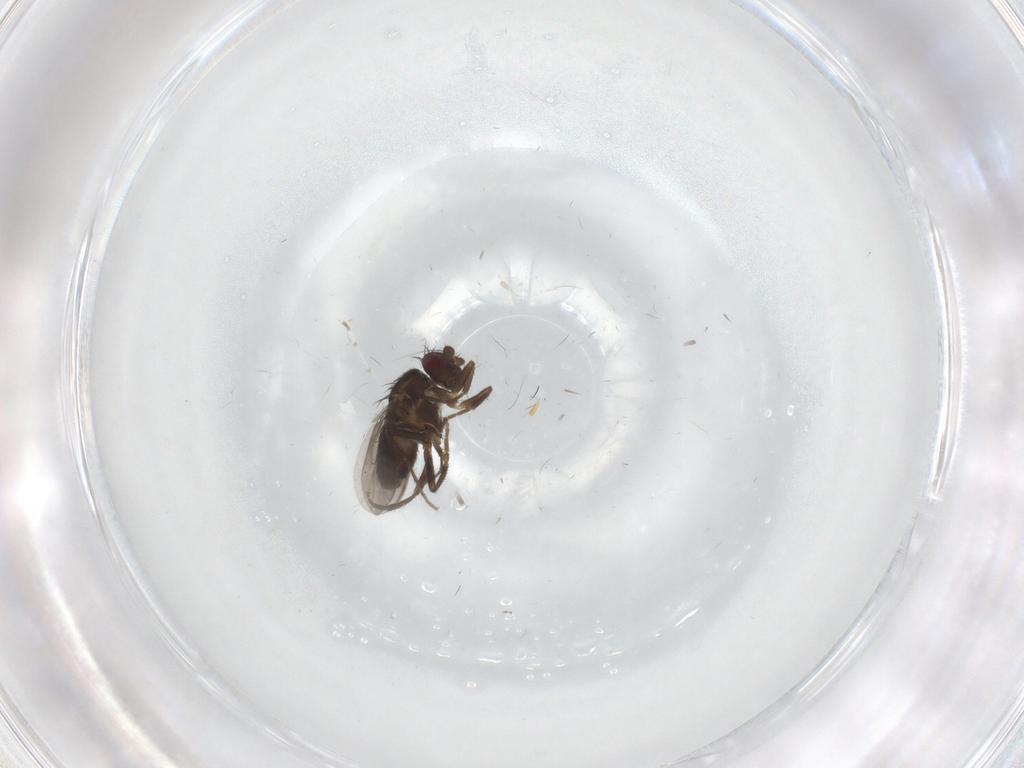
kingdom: Animalia
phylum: Arthropoda
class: Insecta
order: Diptera
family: Sphaeroceridae
